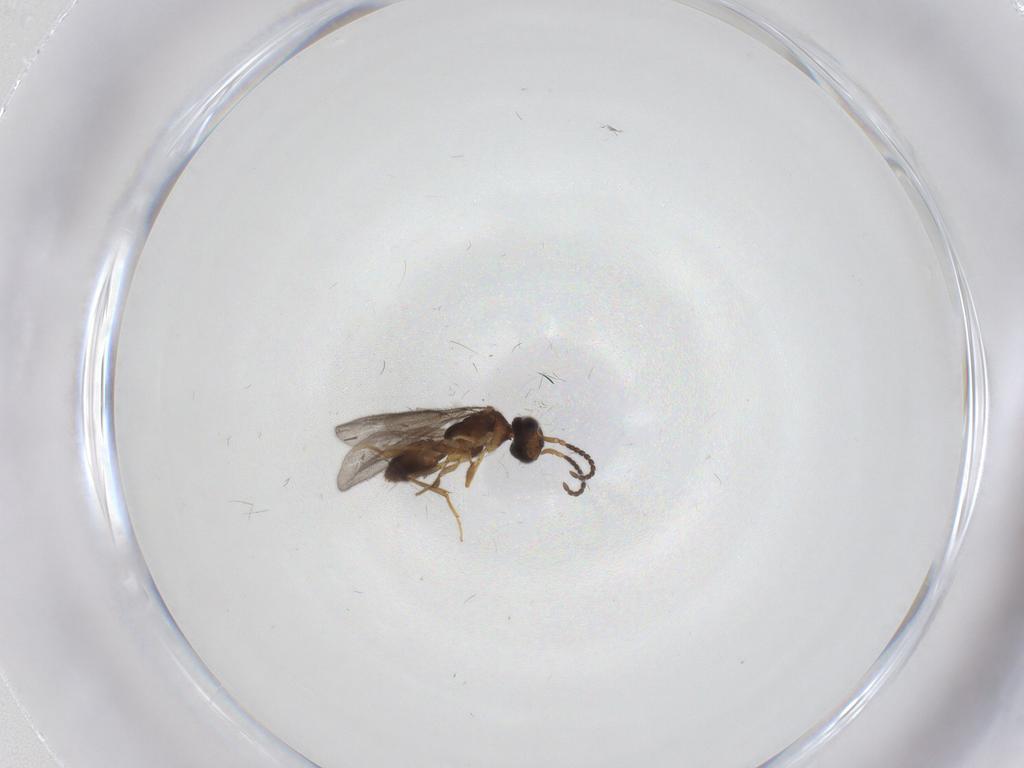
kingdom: Animalia
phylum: Arthropoda
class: Insecta
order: Hymenoptera
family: Bethylidae
